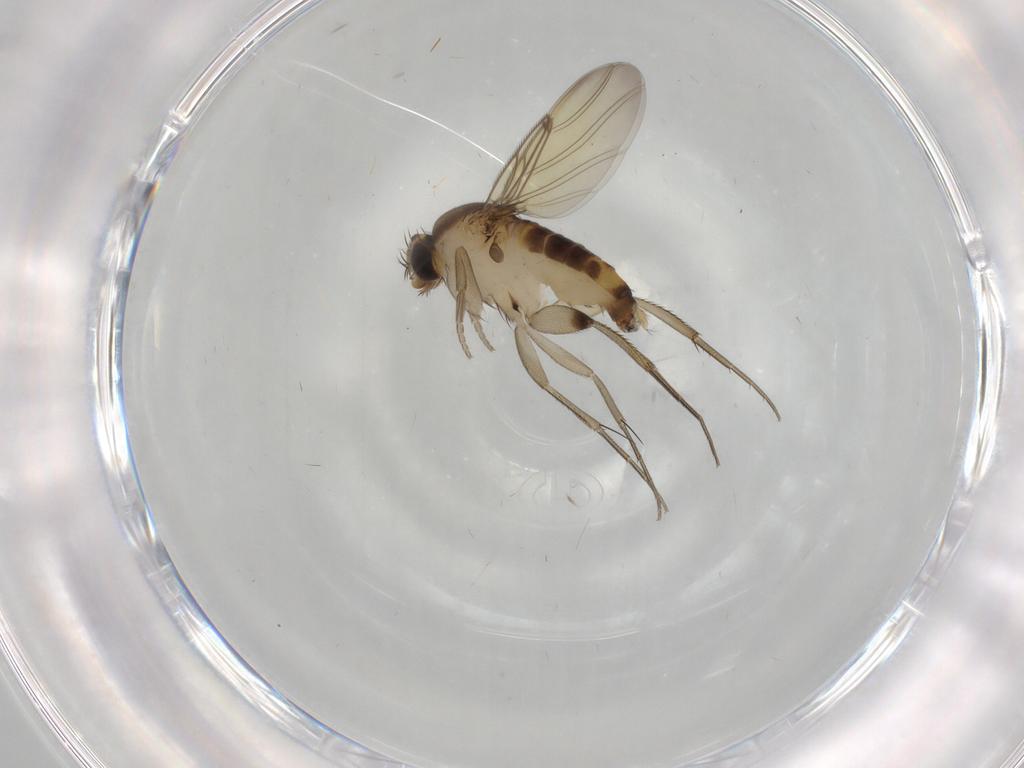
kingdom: Animalia
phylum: Arthropoda
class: Insecta
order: Diptera
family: Phoridae
